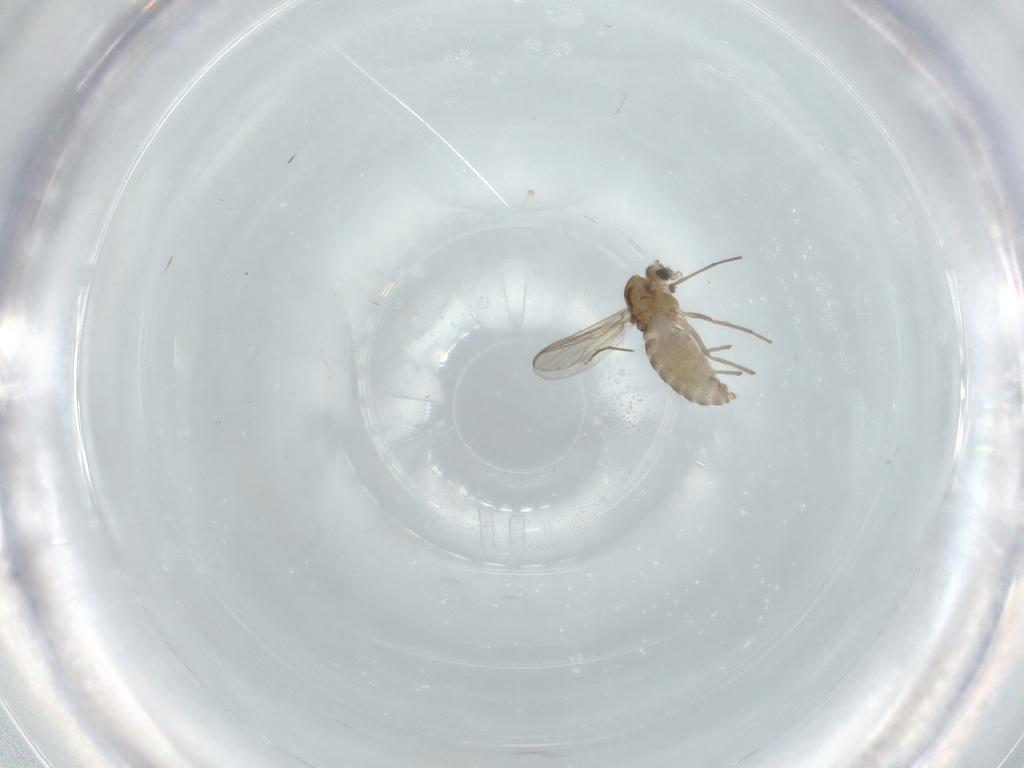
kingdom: Animalia
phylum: Arthropoda
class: Insecta
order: Diptera
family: Chironomidae
